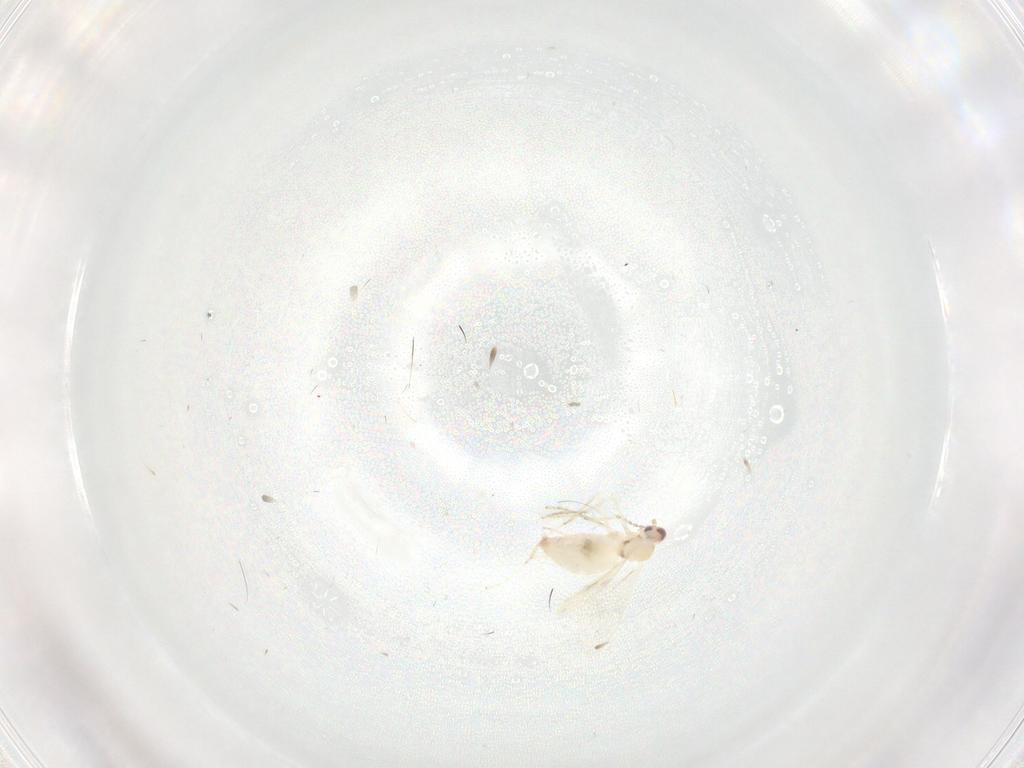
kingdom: Animalia
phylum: Arthropoda
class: Insecta
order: Diptera
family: Cecidomyiidae
